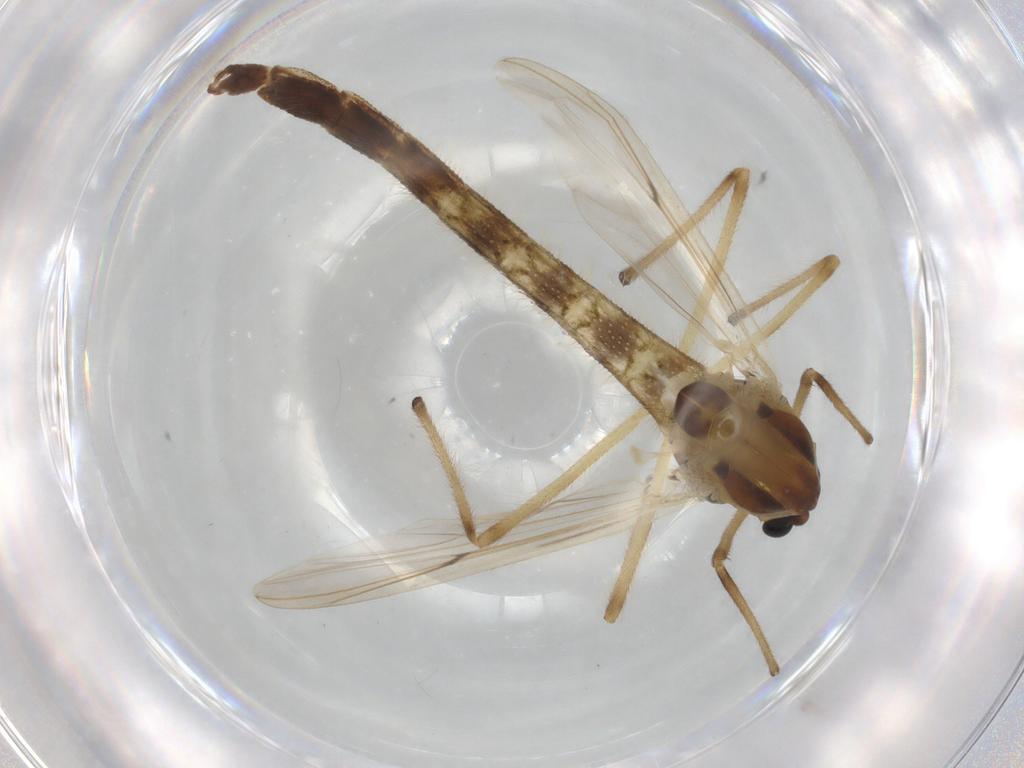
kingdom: Animalia
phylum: Arthropoda
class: Insecta
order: Diptera
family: Chironomidae
